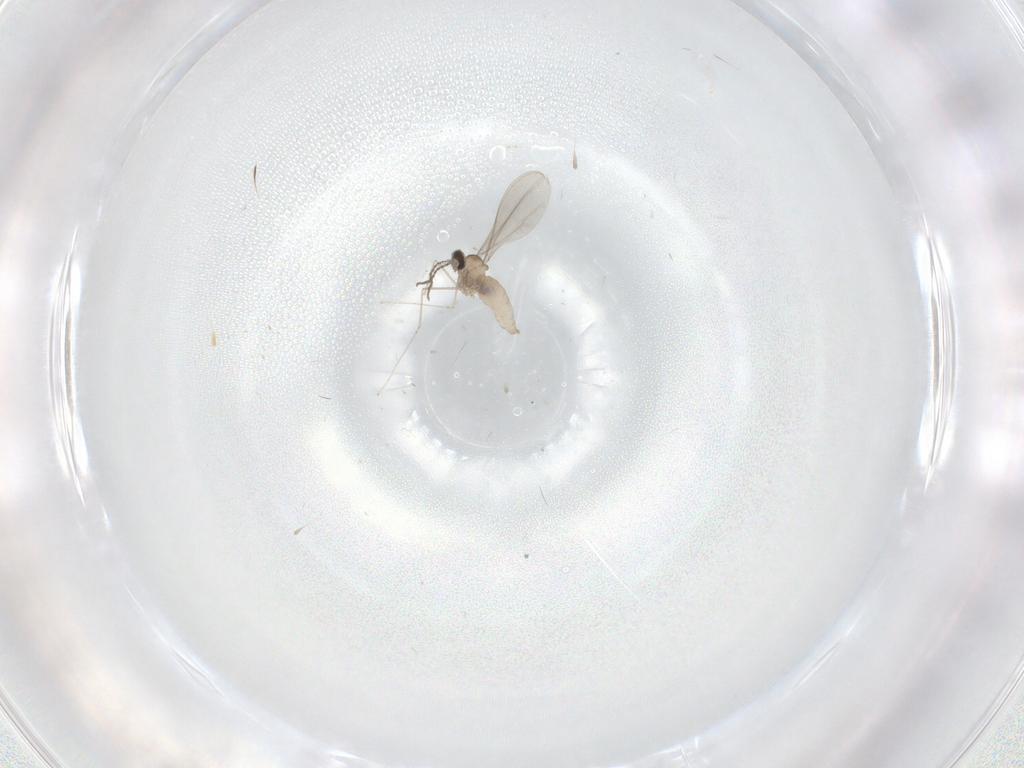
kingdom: Animalia
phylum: Arthropoda
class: Insecta
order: Diptera
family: Cecidomyiidae
